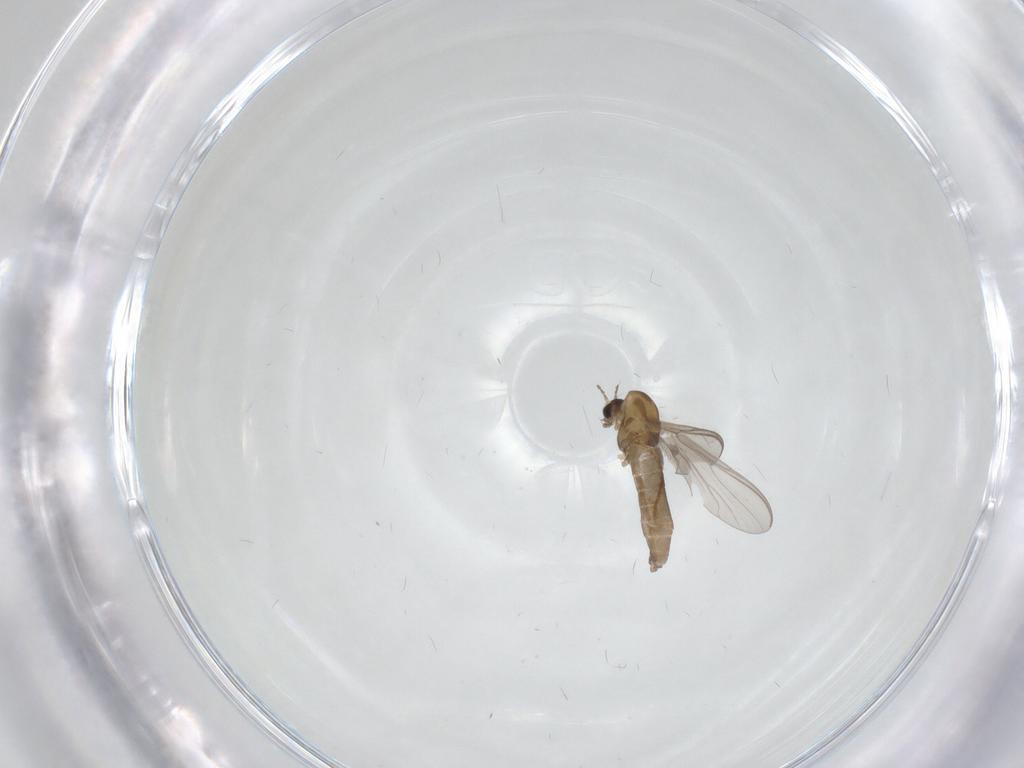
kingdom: Animalia
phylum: Arthropoda
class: Insecta
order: Diptera
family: Chironomidae
